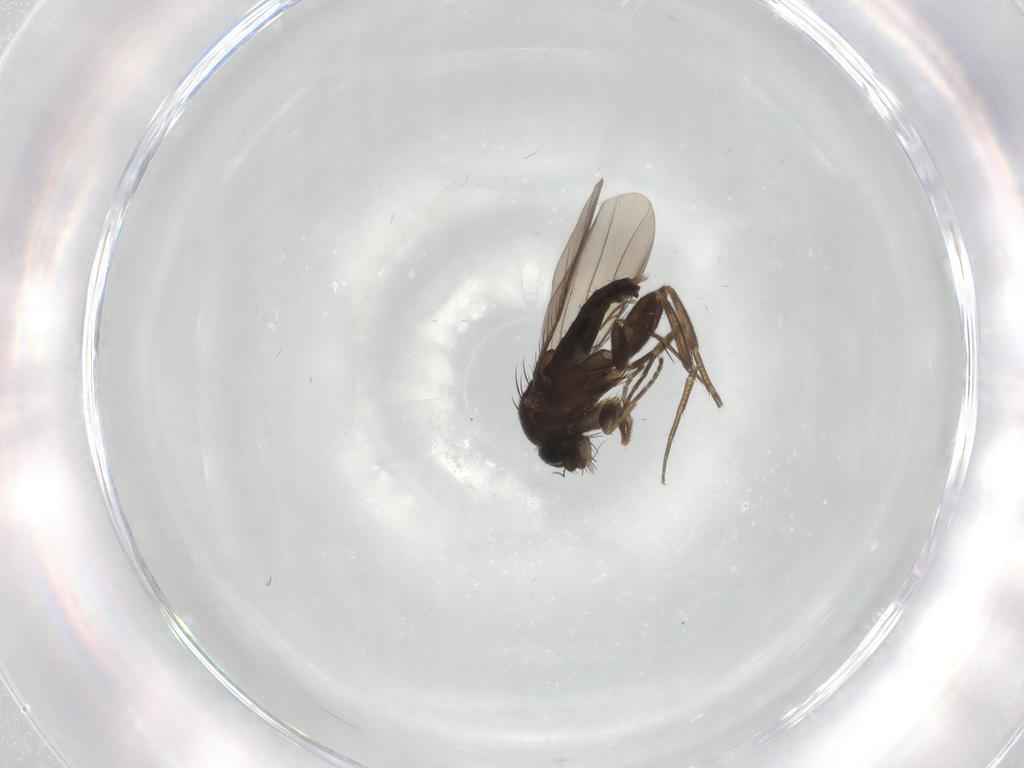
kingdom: Animalia
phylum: Arthropoda
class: Insecta
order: Diptera
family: Phoridae
